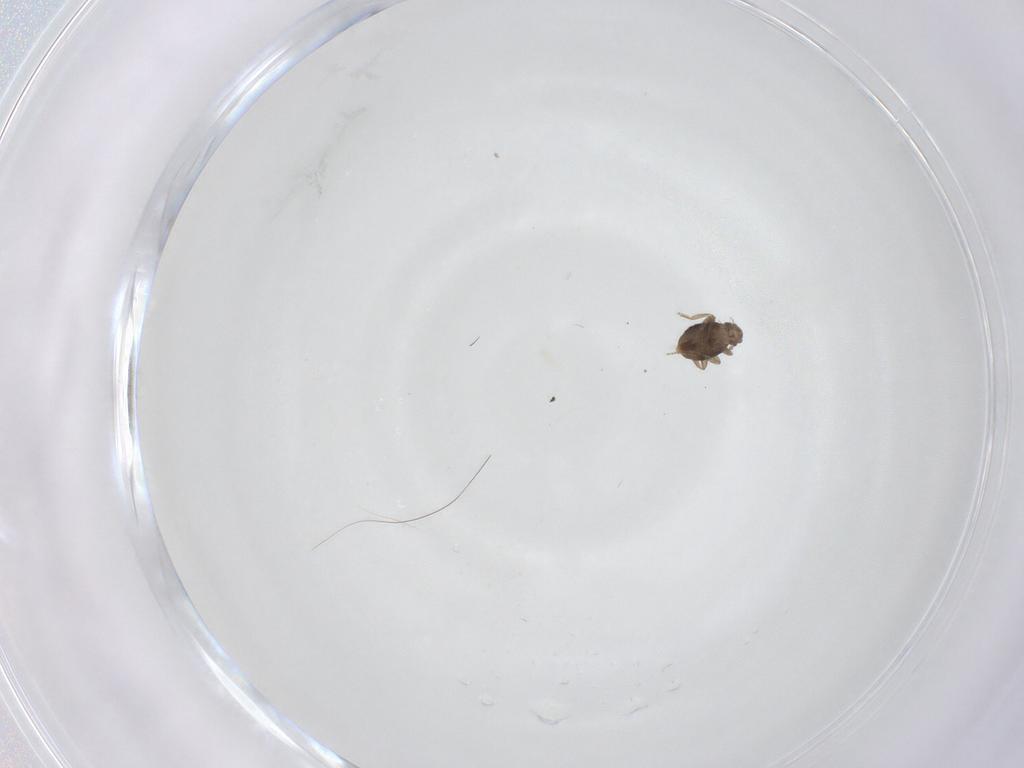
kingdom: Animalia
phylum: Arthropoda
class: Insecta
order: Diptera
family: Phoridae
